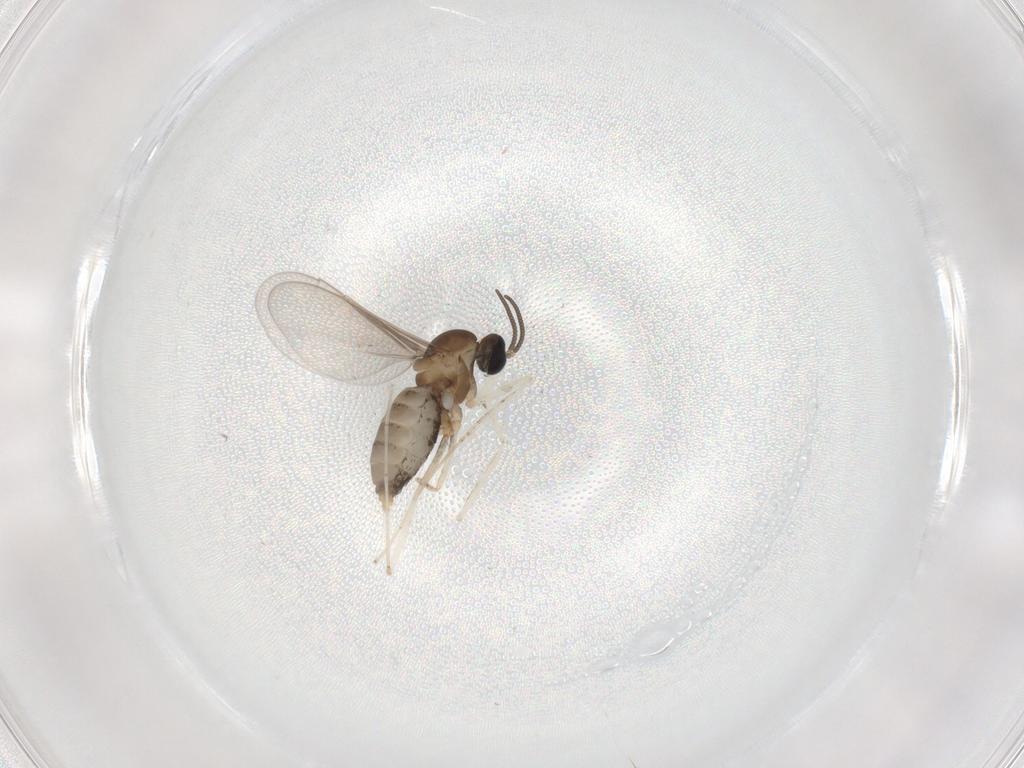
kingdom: Animalia
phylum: Arthropoda
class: Insecta
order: Diptera
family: Cecidomyiidae
